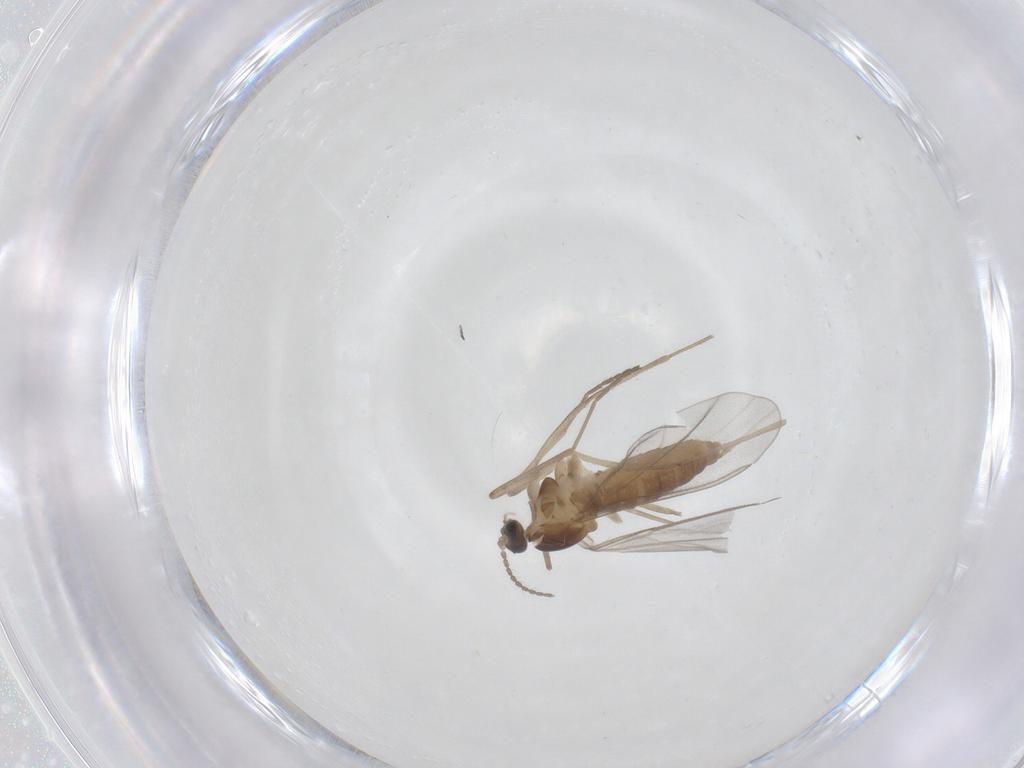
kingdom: Animalia
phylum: Arthropoda
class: Insecta
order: Diptera
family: Cecidomyiidae
